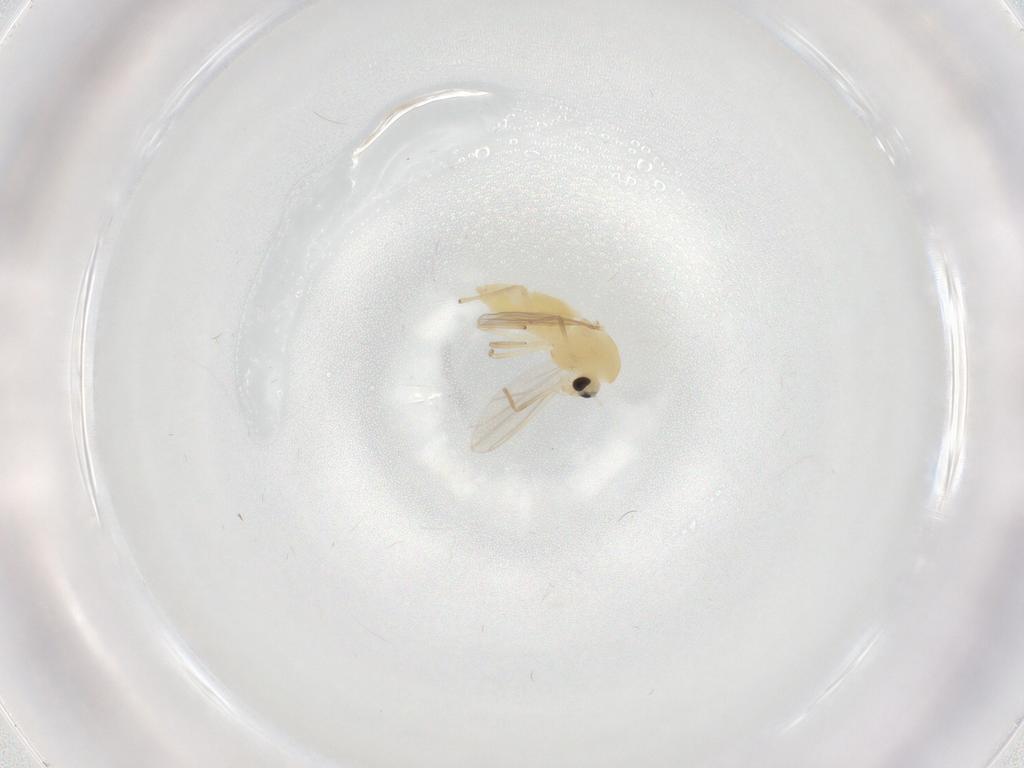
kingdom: Animalia
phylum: Arthropoda
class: Insecta
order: Diptera
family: Chironomidae
